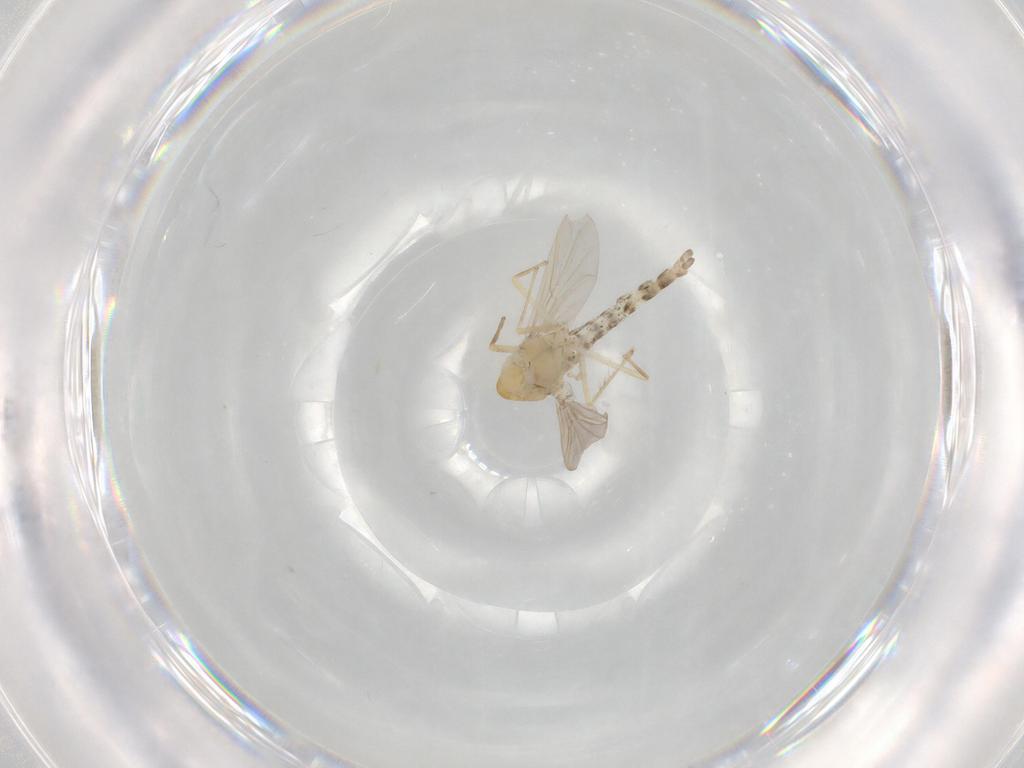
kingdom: Animalia
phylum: Arthropoda
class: Insecta
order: Diptera
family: Chironomidae
